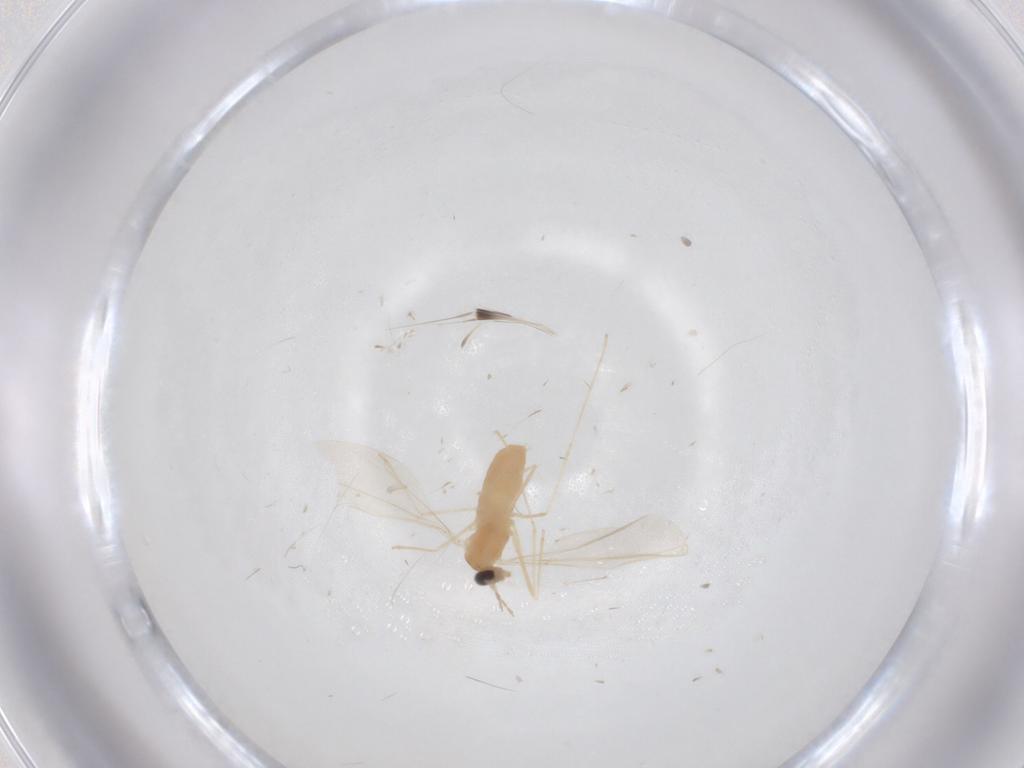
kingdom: Animalia
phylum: Arthropoda
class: Insecta
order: Diptera
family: Cecidomyiidae
